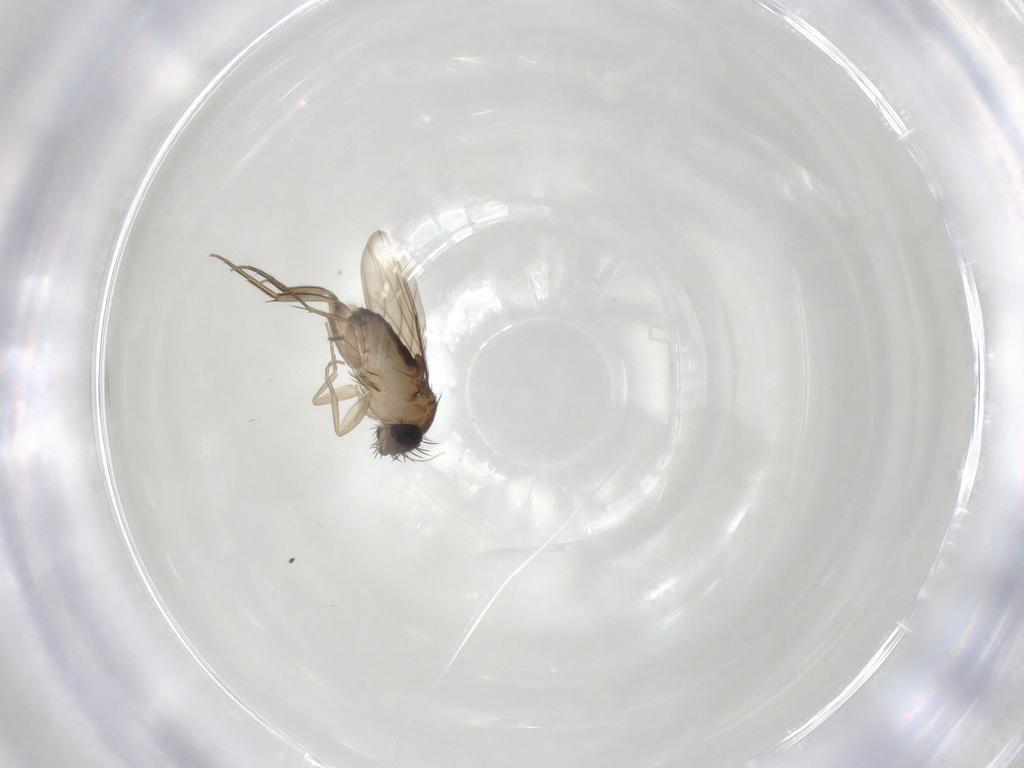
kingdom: Animalia
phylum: Arthropoda
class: Insecta
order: Diptera
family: Phoridae
